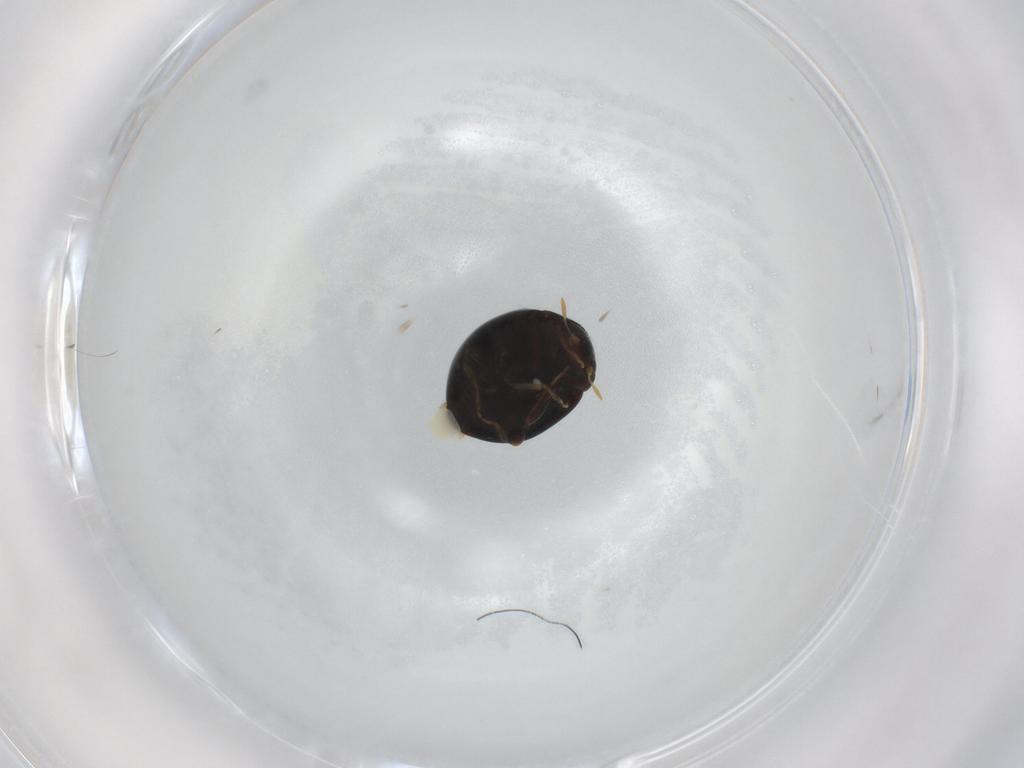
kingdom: Animalia
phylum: Arthropoda
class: Insecta
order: Coleoptera
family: Coccinellidae
